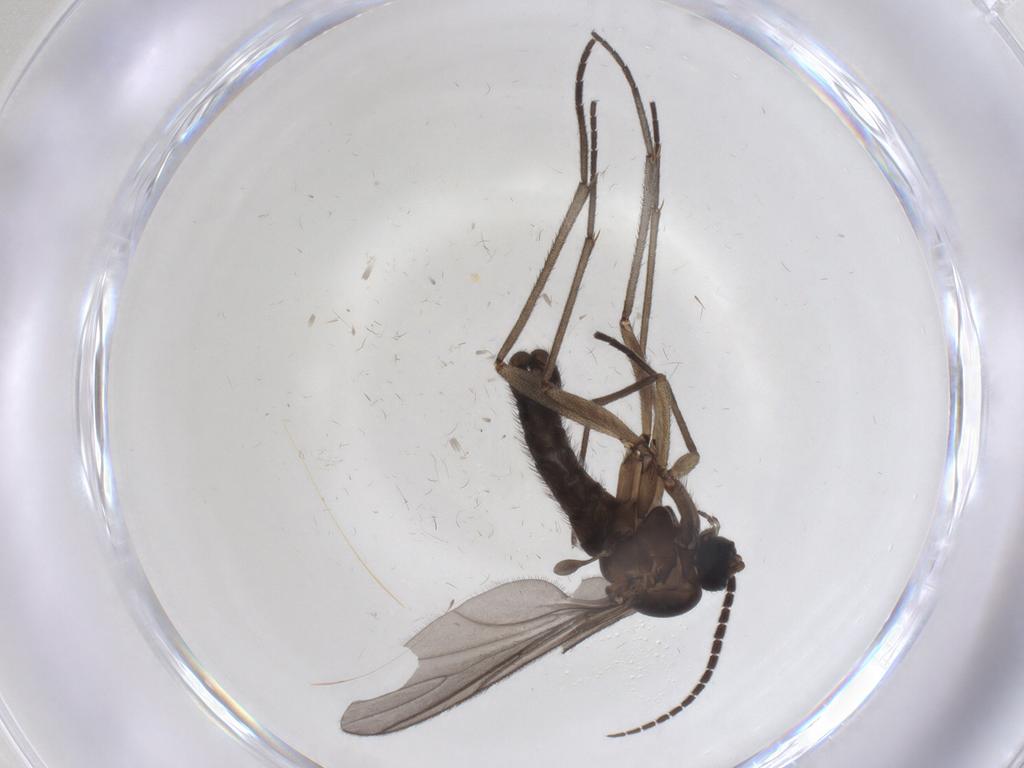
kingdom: Animalia
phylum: Arthropoda
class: Insecta
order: Diptera
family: Sciaridae
